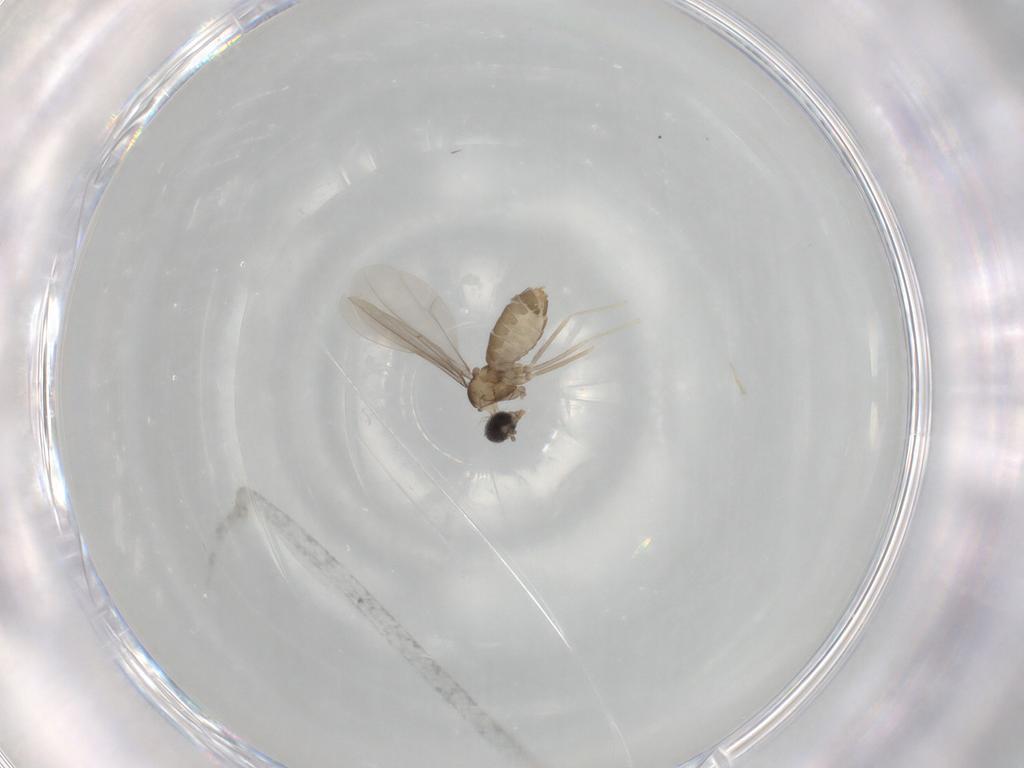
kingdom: Animalia
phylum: Arthropoda
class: Insecta
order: Diptera
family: Cecidomyiidae
